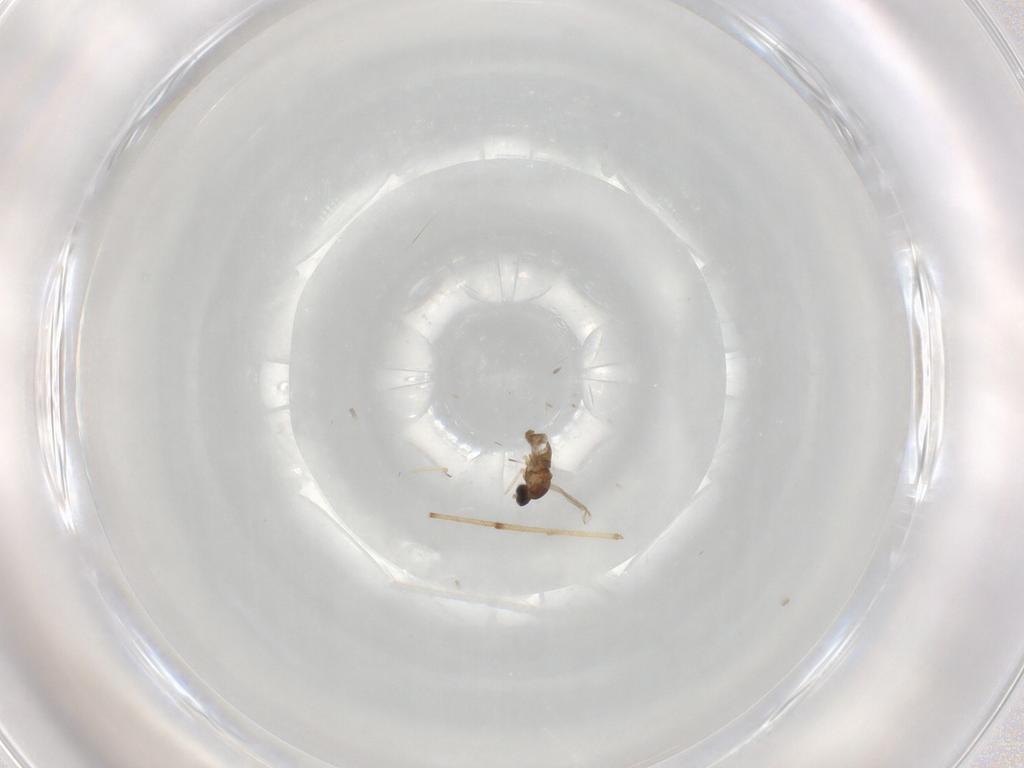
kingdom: Animalia
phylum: Arthropoda
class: Insecta
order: Diptera
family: Cecidomyiidae
